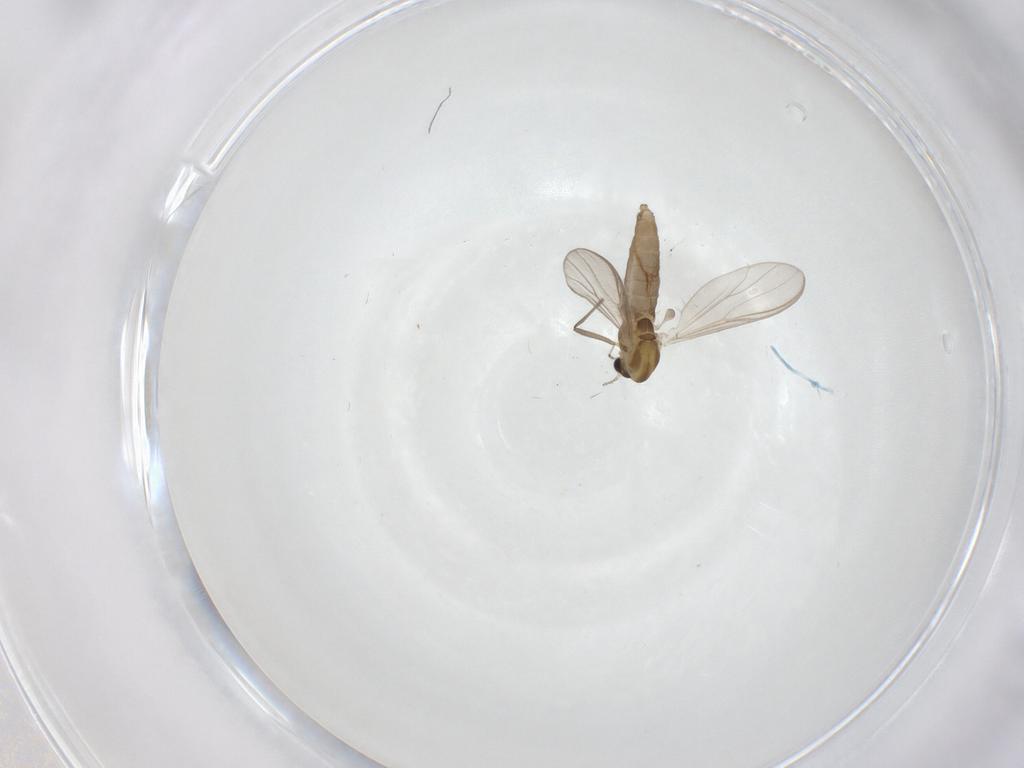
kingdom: Animalia
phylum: Arthropoda
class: Insecta
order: Diptera
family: Chironomidae
